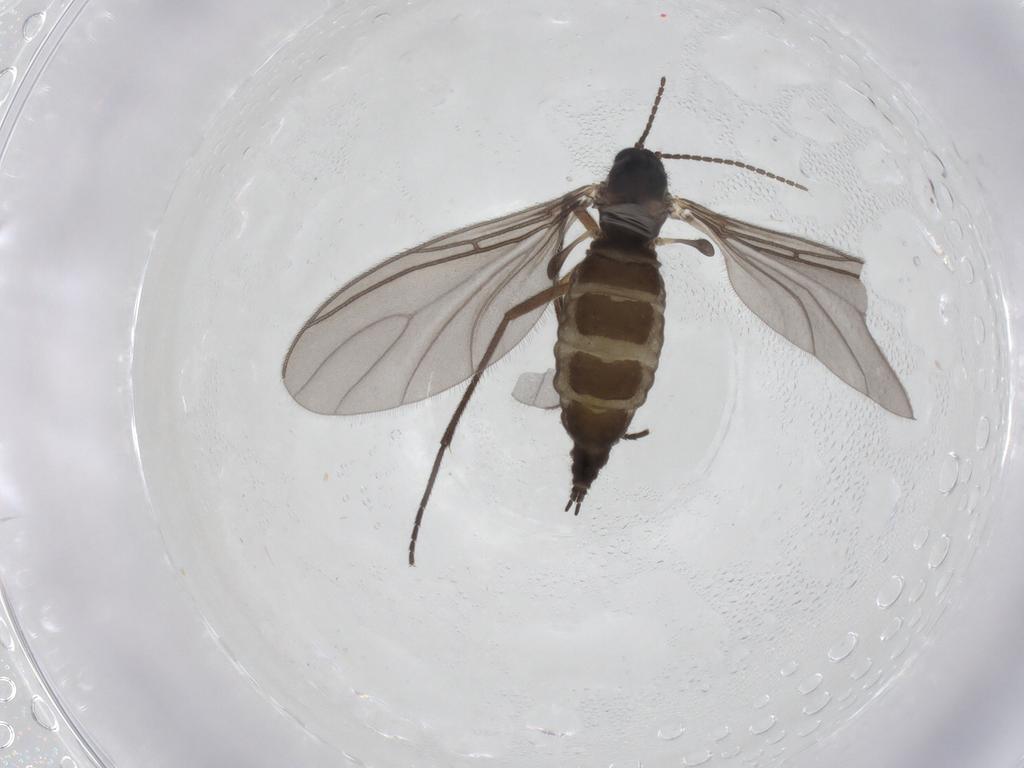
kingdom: Animalia
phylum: Arthropoda
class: Insecta
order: Diptera
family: Sciaridae
